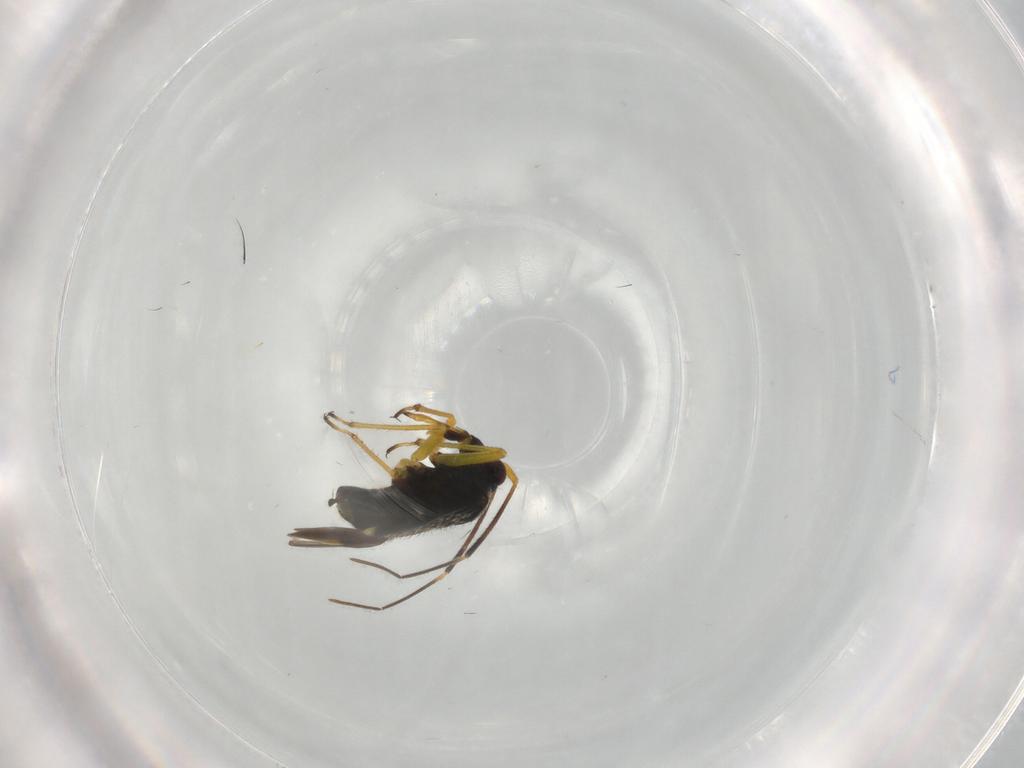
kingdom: Animalia
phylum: Arthropoda
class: Insecta
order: Hemiptera
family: Miridae
